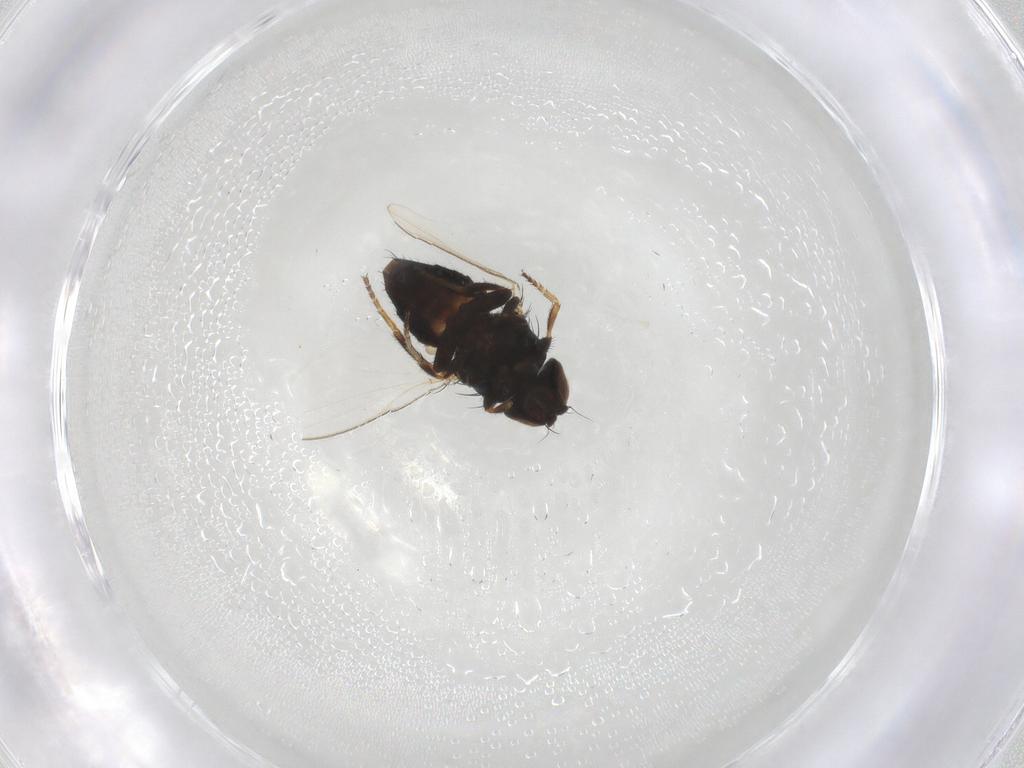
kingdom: Animalia
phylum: Arthropoda
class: Insecta
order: Diptera
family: Milichiidae
